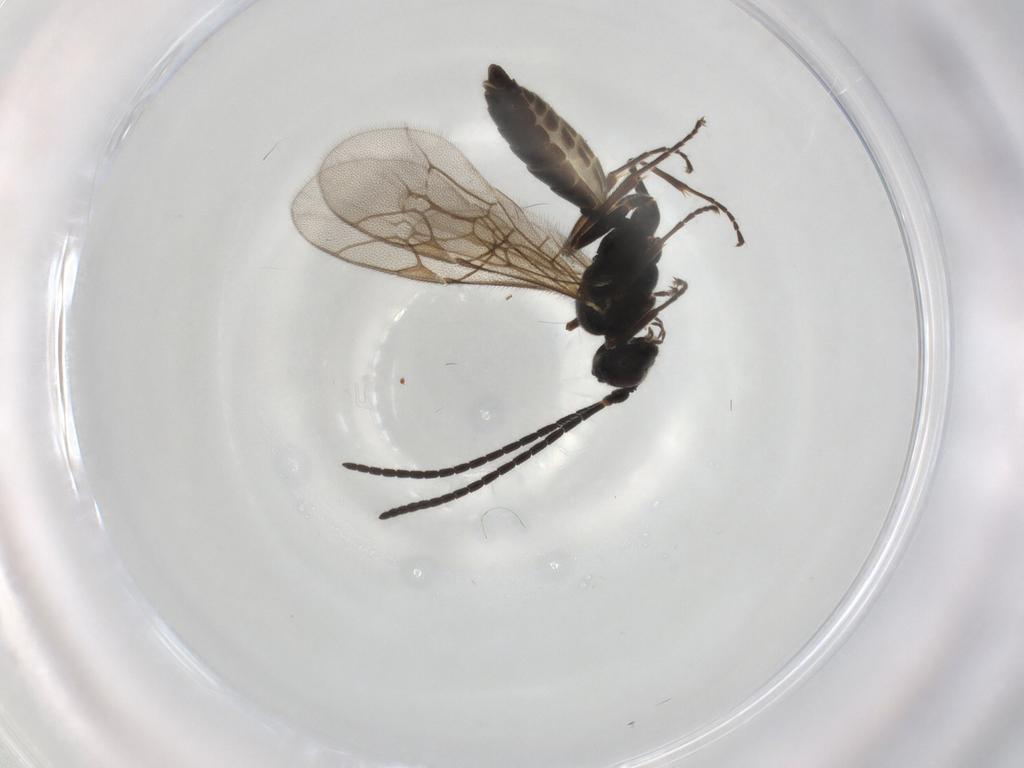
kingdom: Animalia
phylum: Arthropoda
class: Insecta
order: Hymenoptera
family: Ichneumonidae
